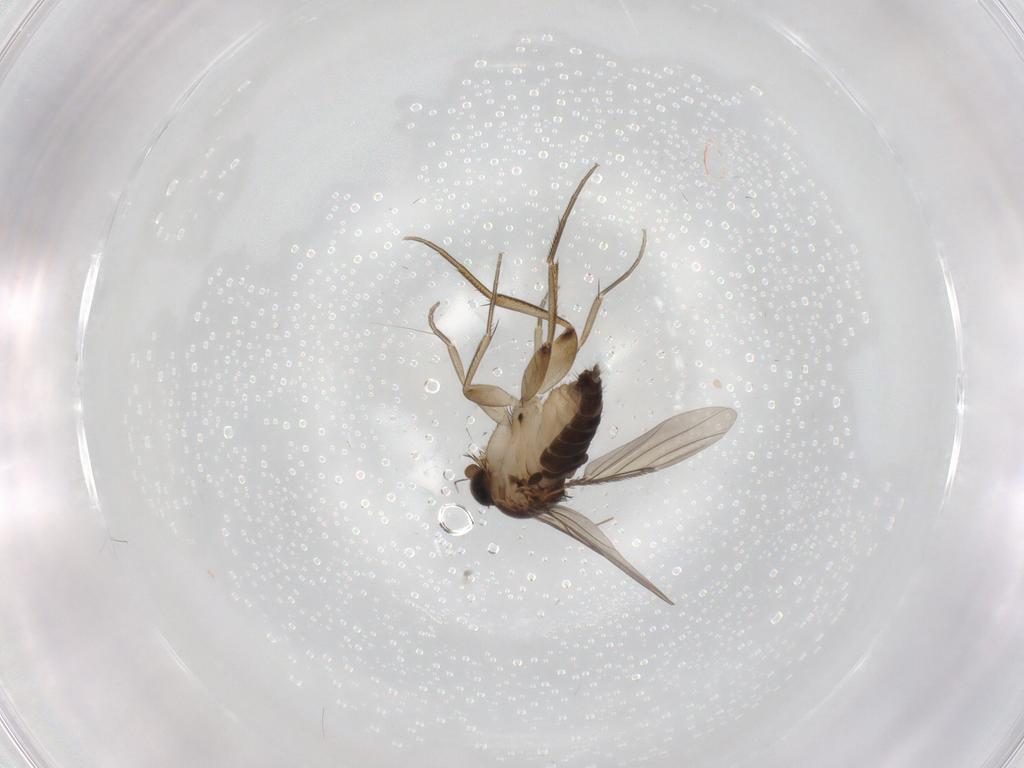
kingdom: Animalia
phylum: Arthropoda
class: Insecta
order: Diptera
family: Phoridae
